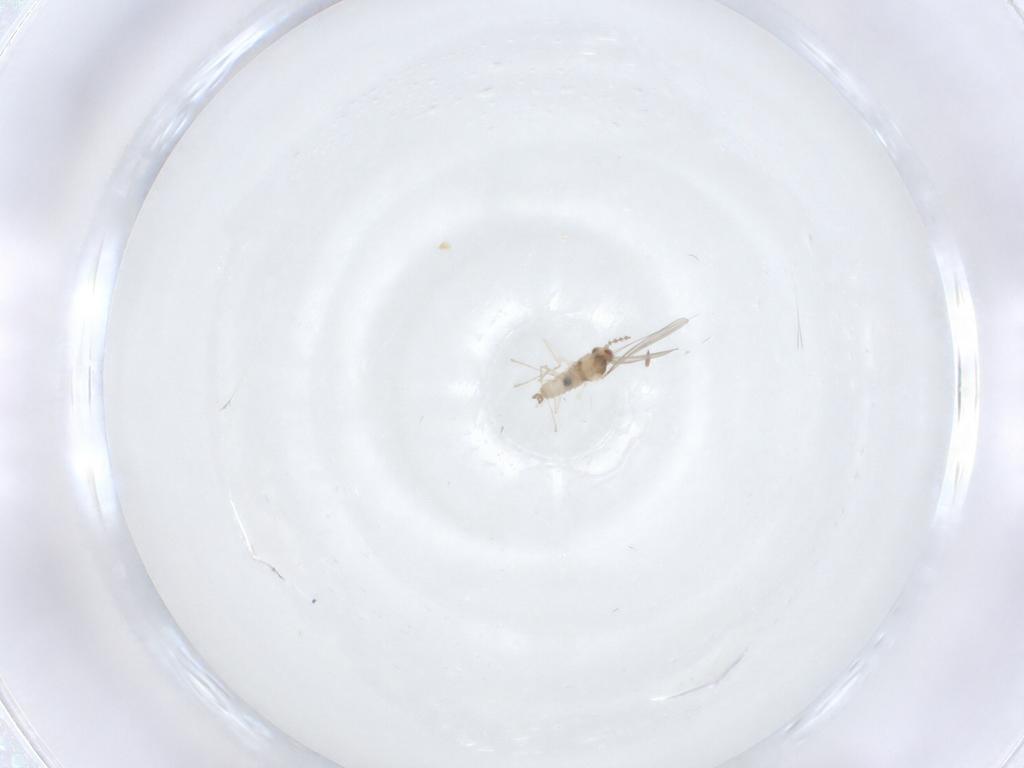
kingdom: Animalia
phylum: Arthropoda
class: Insecta
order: Diptera
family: Cecidomyiidae
